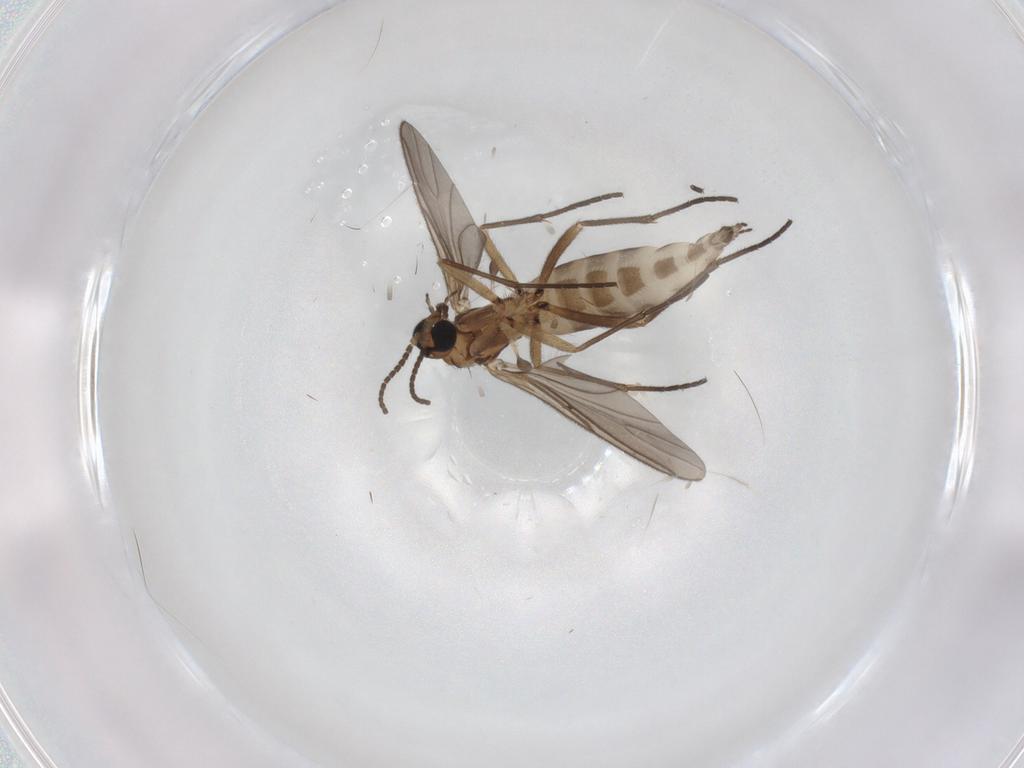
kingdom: Animalia
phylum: Arthropoda
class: Insecta
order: Diptera
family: Sciaridae
